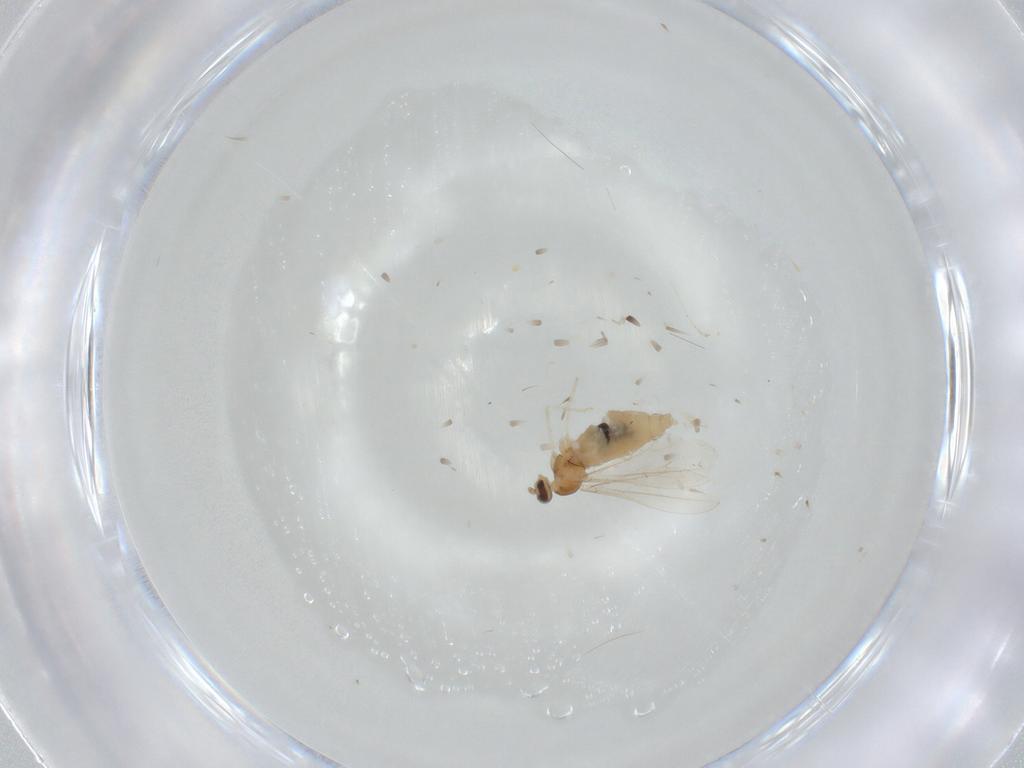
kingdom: Animalia
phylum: Arthropoda
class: Insecta
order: Diptera
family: Cecidomyiidae
